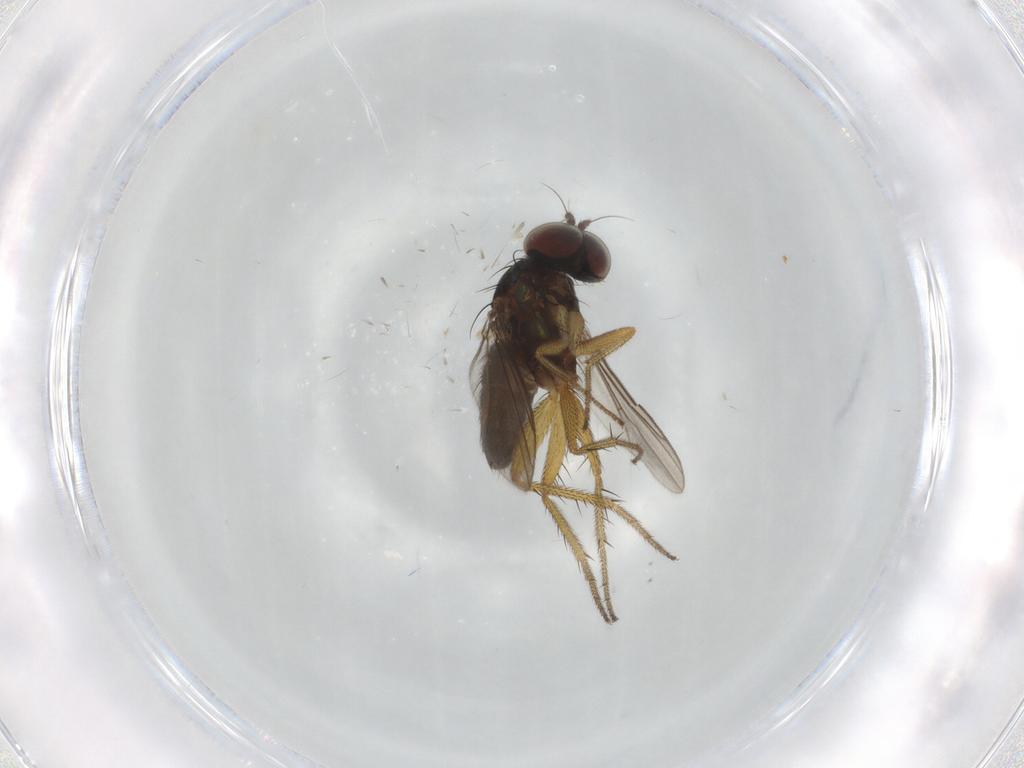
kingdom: Animalia
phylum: Arthropoda
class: Insecta
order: Diptera
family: Dolichopodidae
